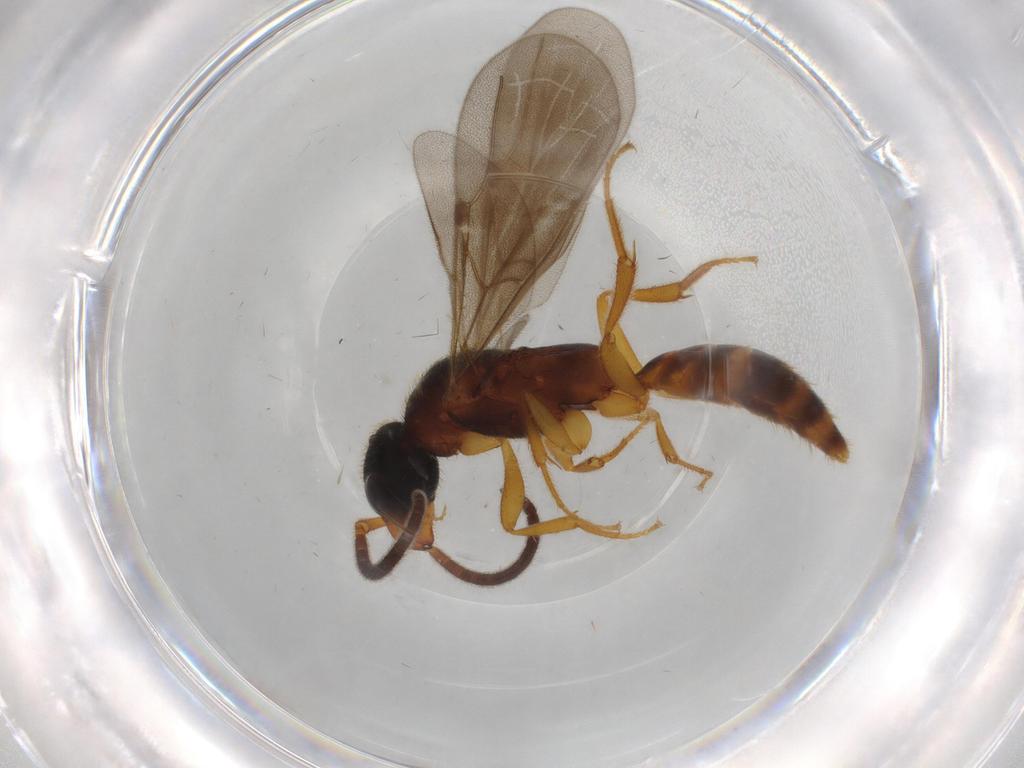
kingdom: Animalia
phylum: Arthropoda
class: Insecta
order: Hymenoptera
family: Bethylidae
